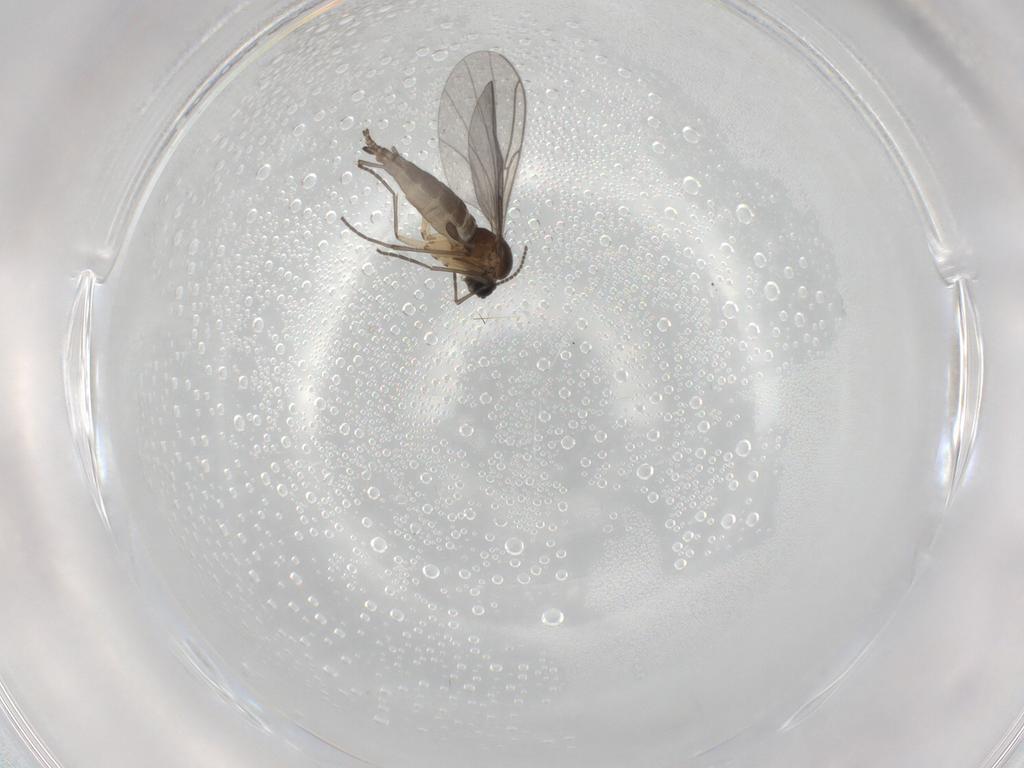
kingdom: Animalia
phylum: Arthropoda
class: Insecta
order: Diptera
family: Sciaridae
